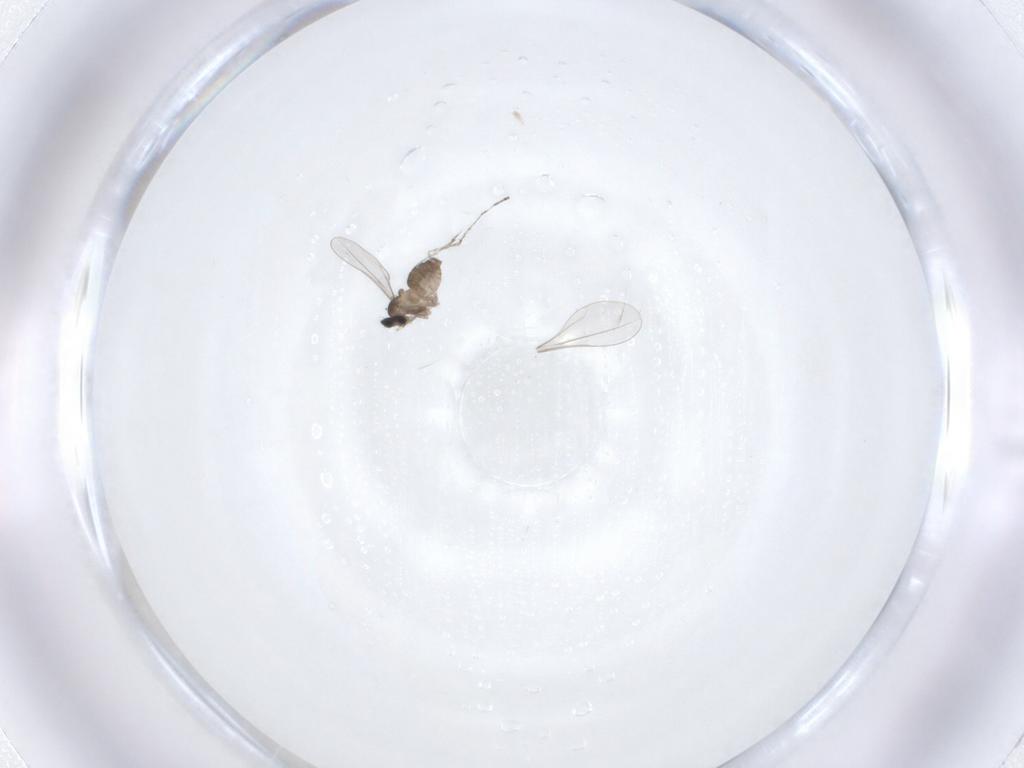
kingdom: Animalia
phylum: Arthropoda
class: Insecta
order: Diptera
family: Cecidomyiidae
